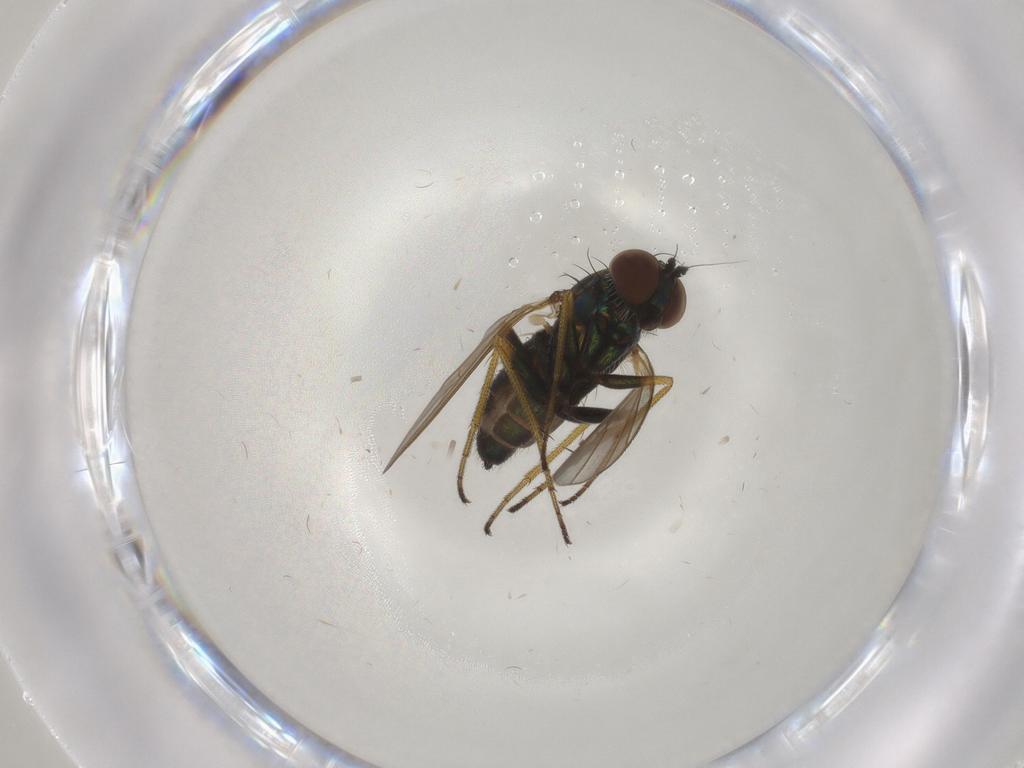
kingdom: Animalia
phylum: Arthropoda
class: Insecta
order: Diptera
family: Dolichopodidae
